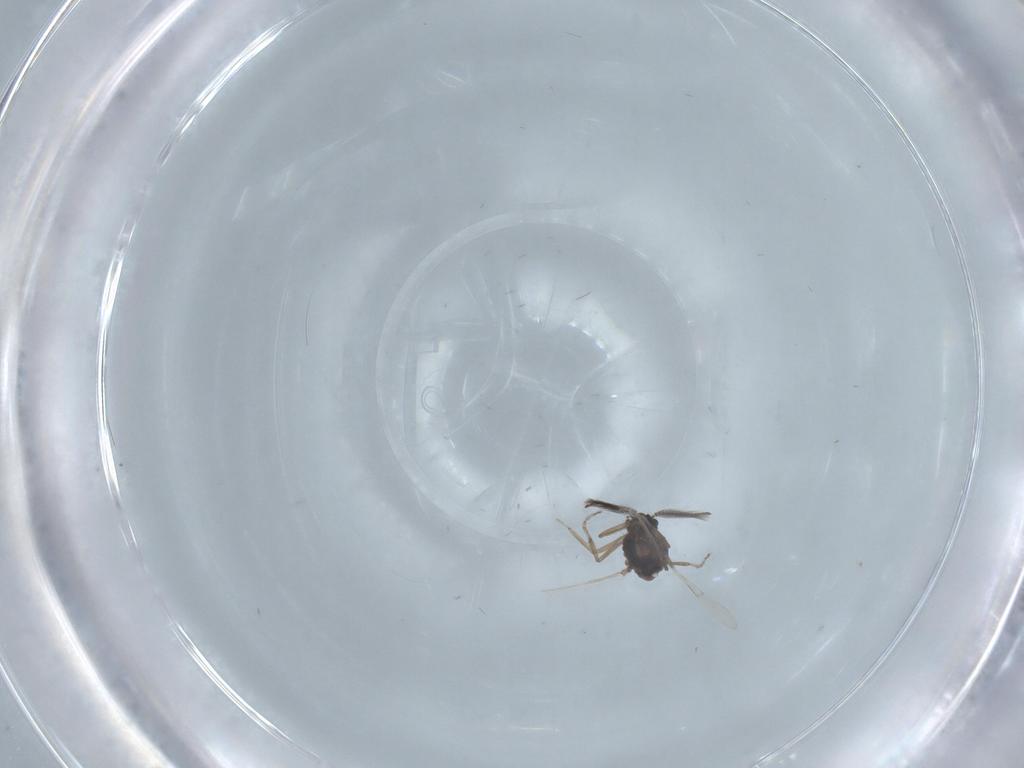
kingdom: Animalia
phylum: Arthropoda
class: Insecta
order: Diptera
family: Ceratopogonidae
